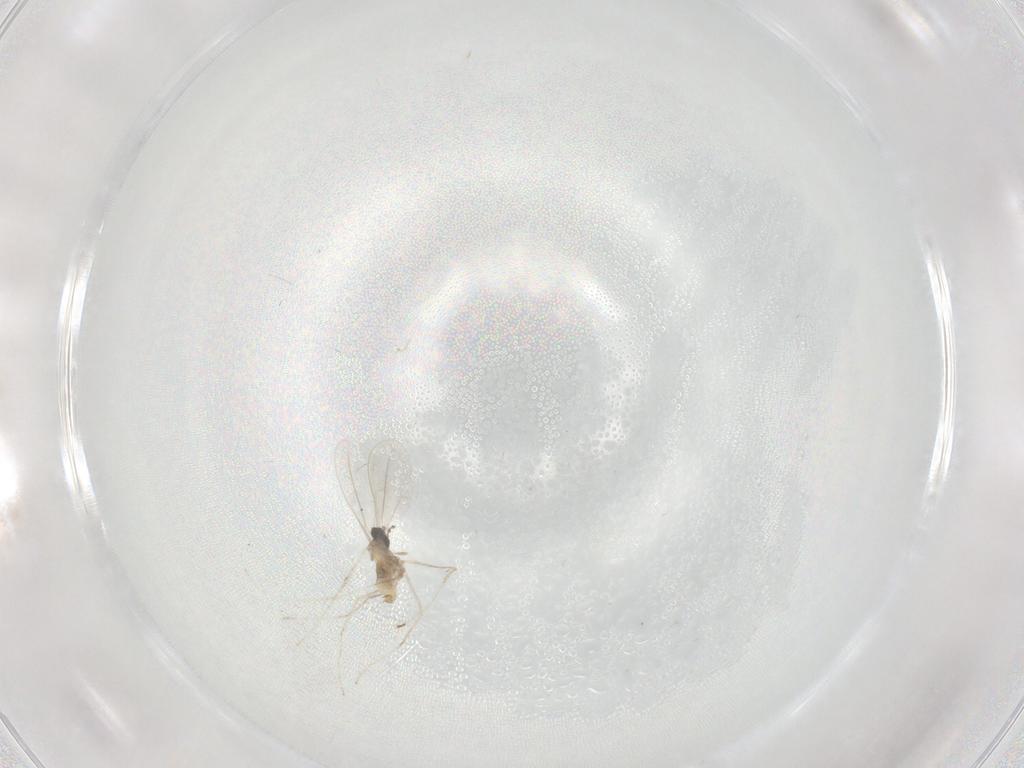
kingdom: Animalia
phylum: Arthropoda
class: Insecta
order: Diptera
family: Cecidomyiidae
